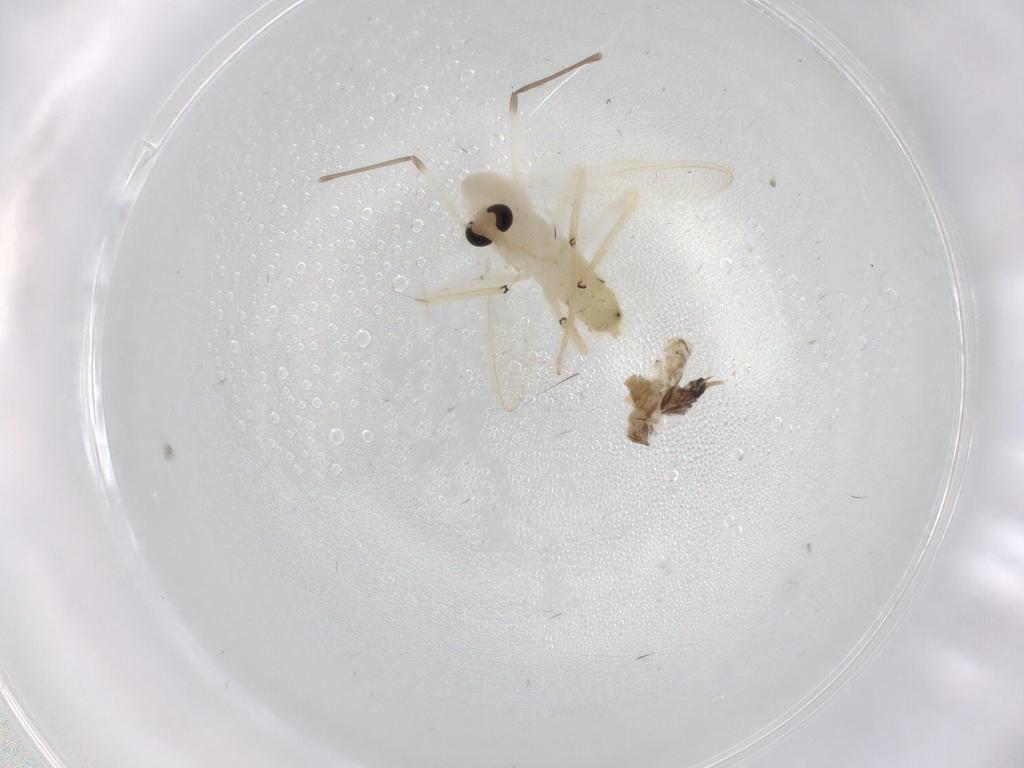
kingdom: Animalia
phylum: Arthropoda
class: Insecta
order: Diptera
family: Limoniidae
